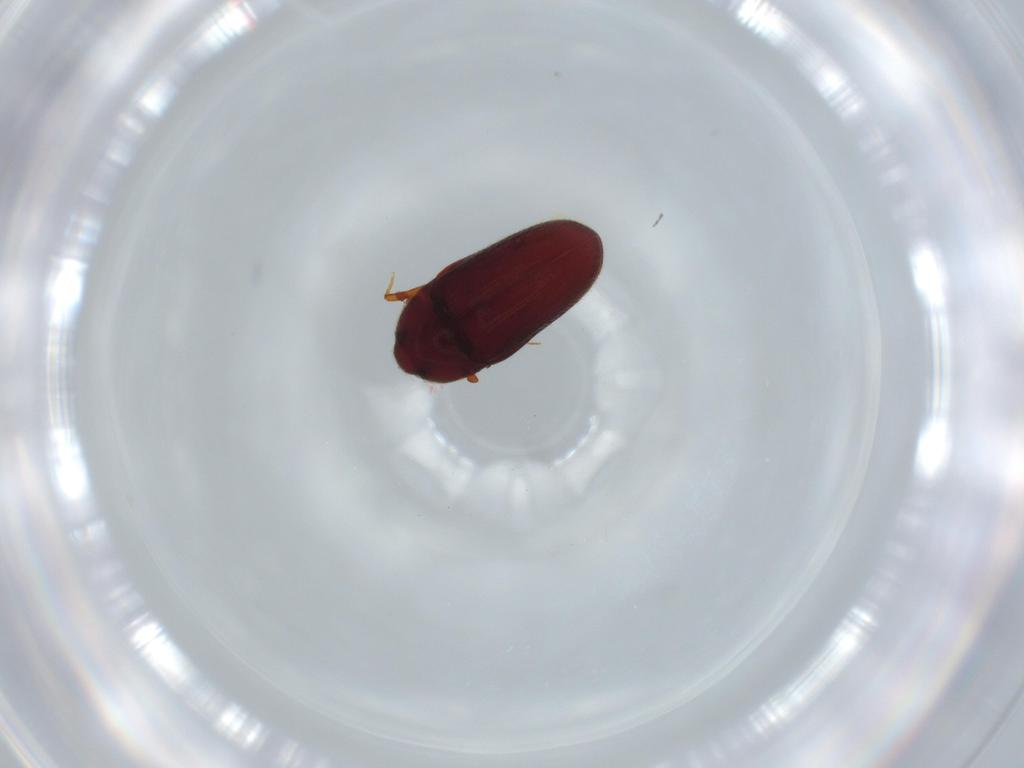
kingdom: Animalia
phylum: Arthropoda
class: Insecta
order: Coleoptera
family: Throscidae
